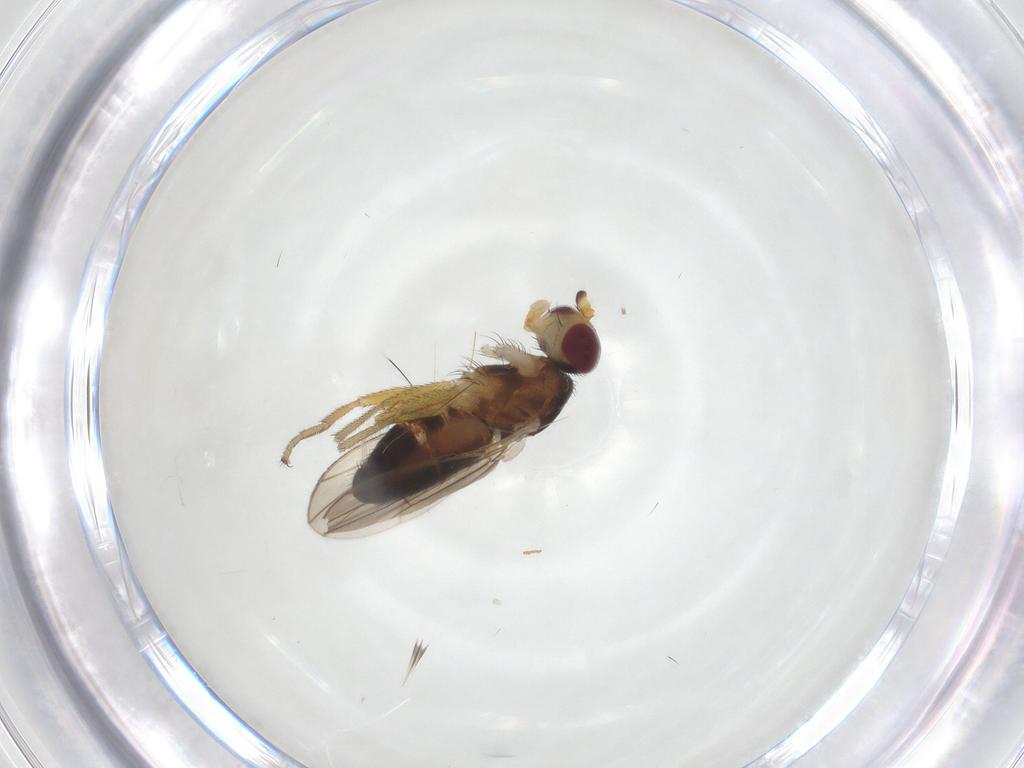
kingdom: Animalia
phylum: Arthropoda
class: Insecta
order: Diptera
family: Heleomyzidae
